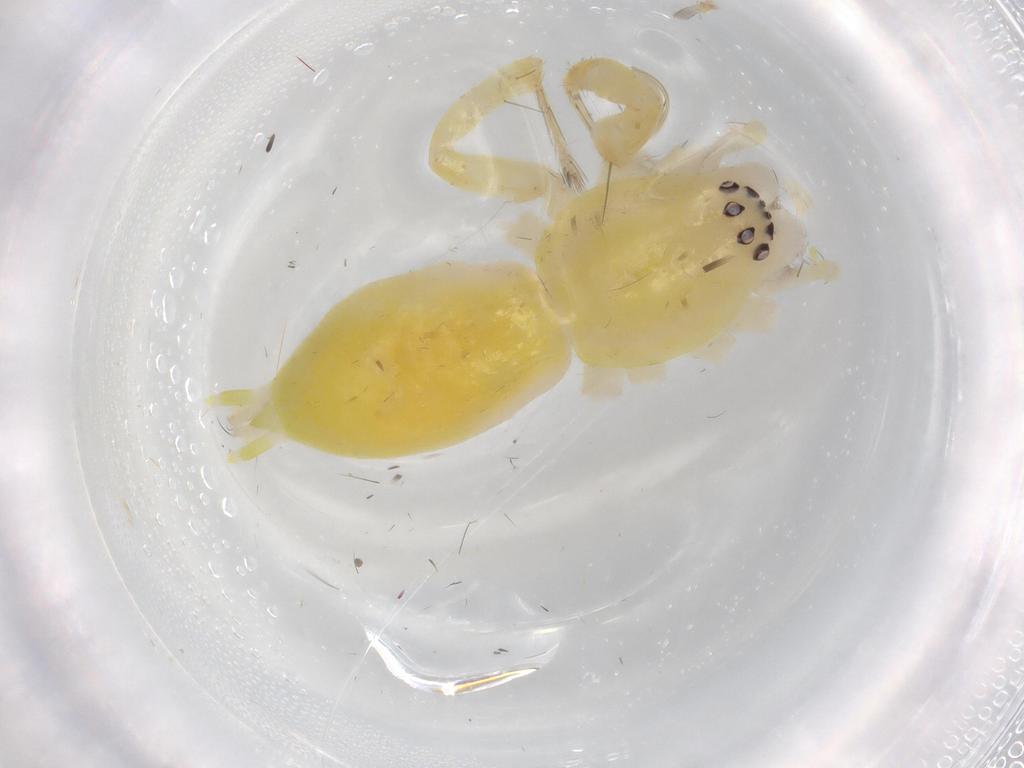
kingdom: Animalia
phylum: Arthropoda
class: Arachnida
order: Araneae
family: Anyphaenidae
